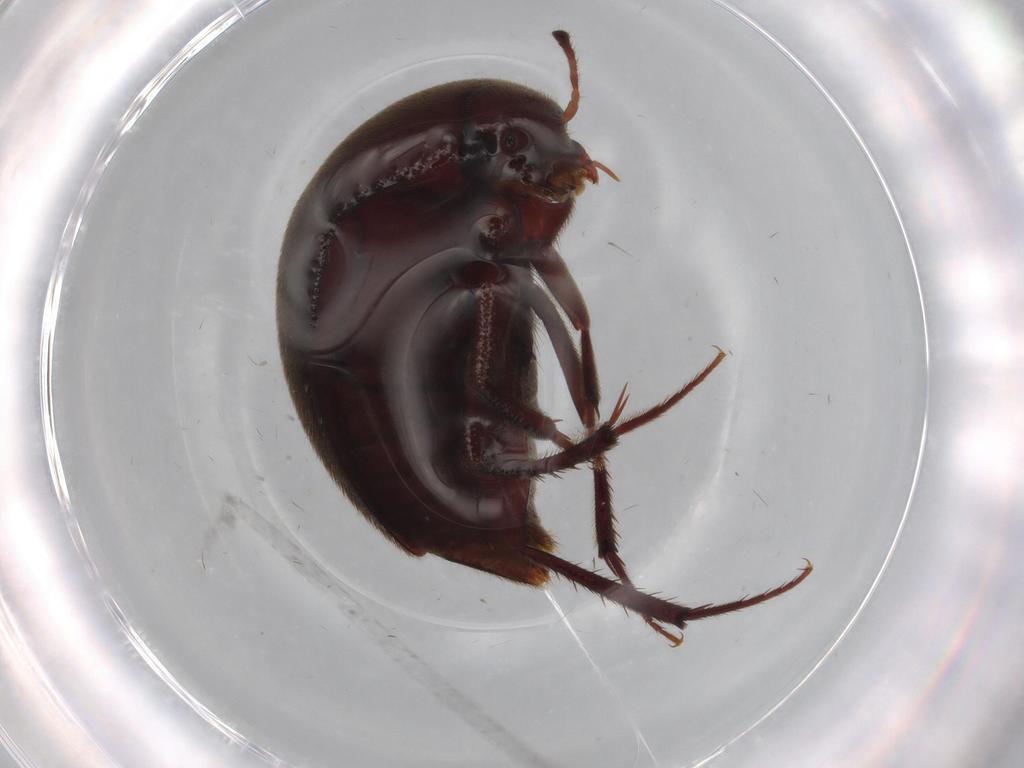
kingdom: Animalia
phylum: Arthropoda
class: Insecta
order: Coleoptera
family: Leiodidae
